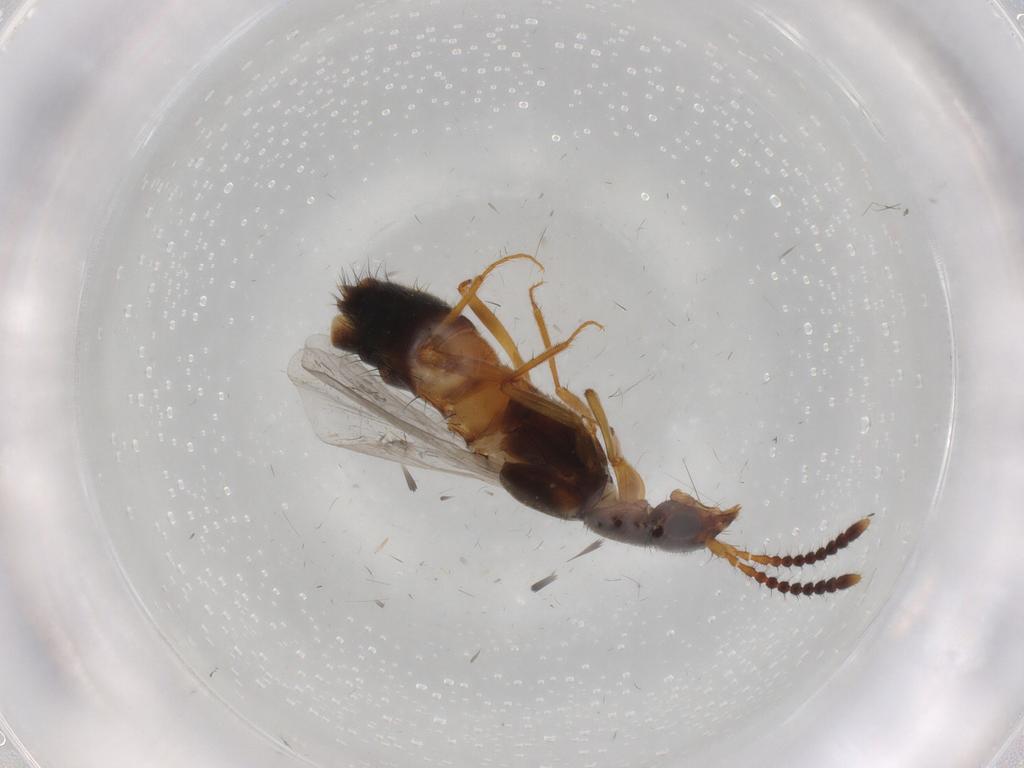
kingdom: Animalia
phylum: Arthropoda
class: Insecta
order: Coleoptera
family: Staphylinidae
